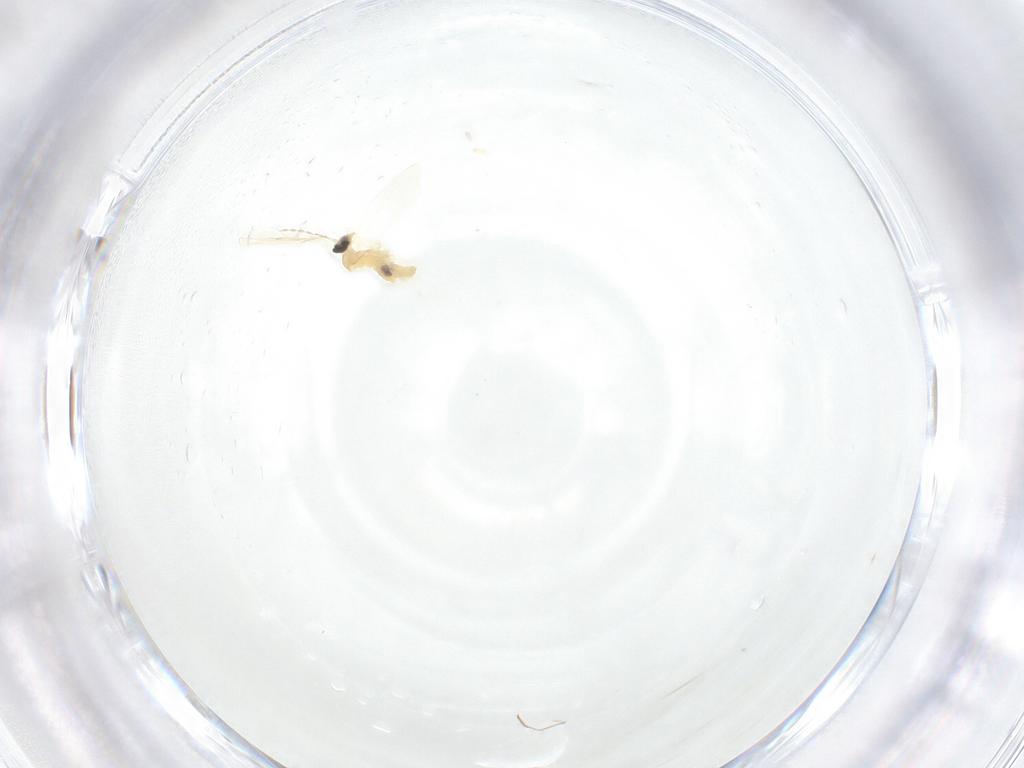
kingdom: Animalia
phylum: Arthropoda
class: Insecta
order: Diptera
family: Cecidomyiidae
